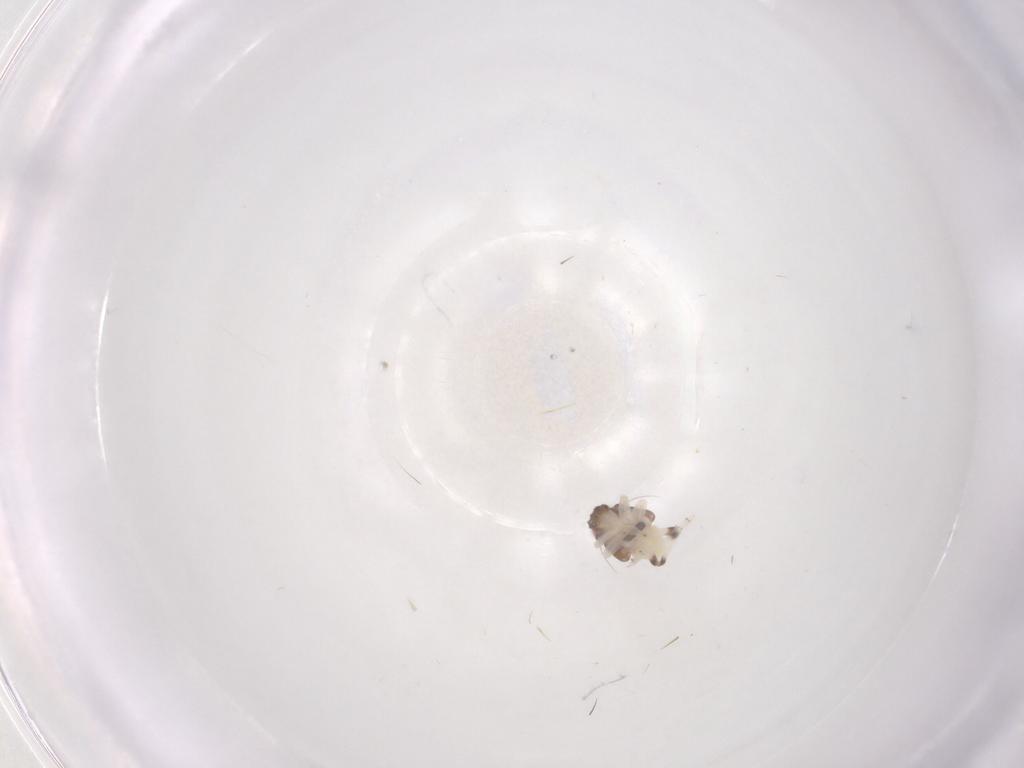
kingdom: Animalia
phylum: Arthropoda
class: Insecta
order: Hemiptera
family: Nogodinidae
